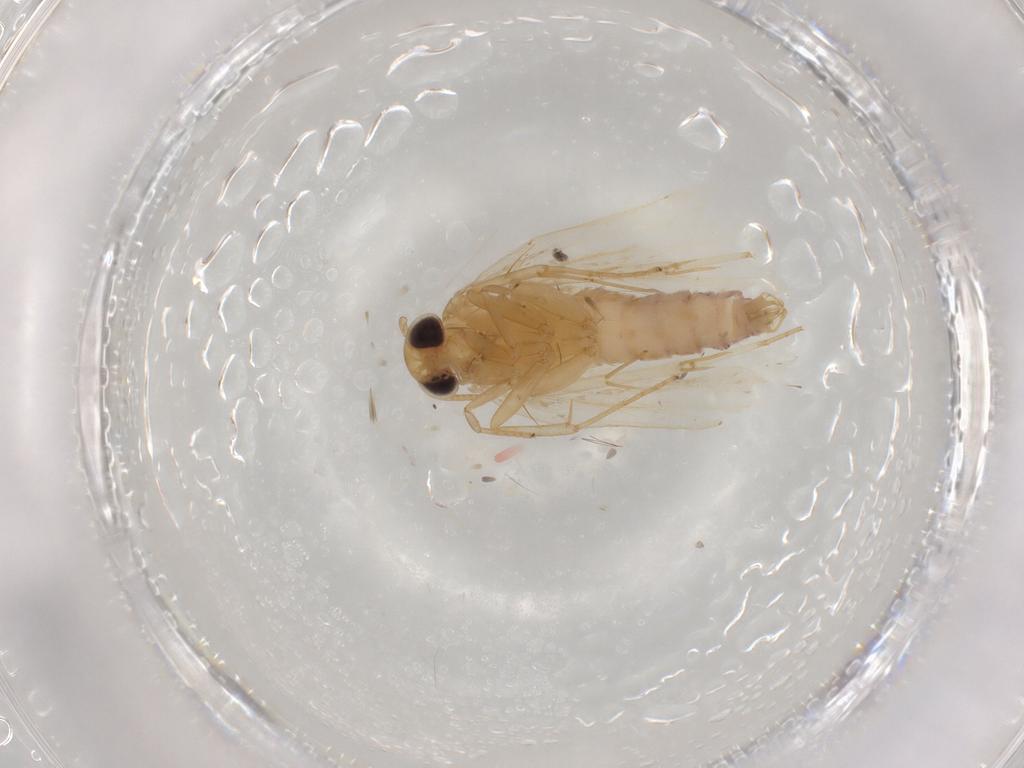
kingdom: Animalia
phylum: Arthropoda
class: Insecta
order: Lepidoptera
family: Depressariidae
